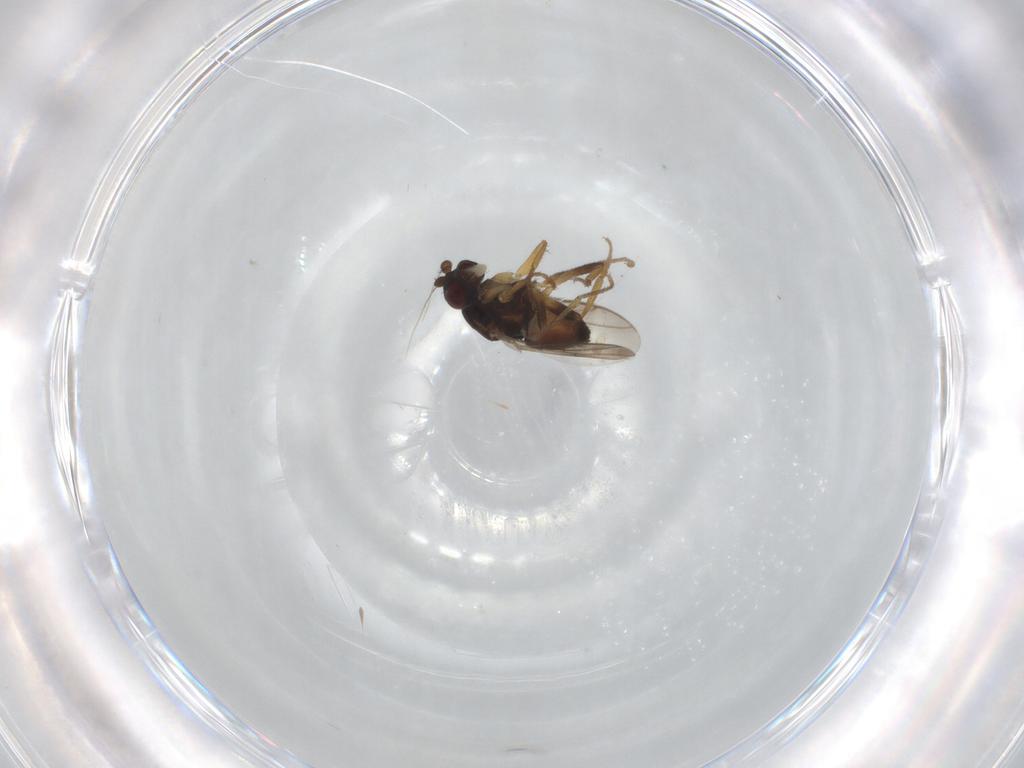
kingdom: Animalia
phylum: Arthropoda
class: Insecta
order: Diptera
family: Sphaeroceridae
